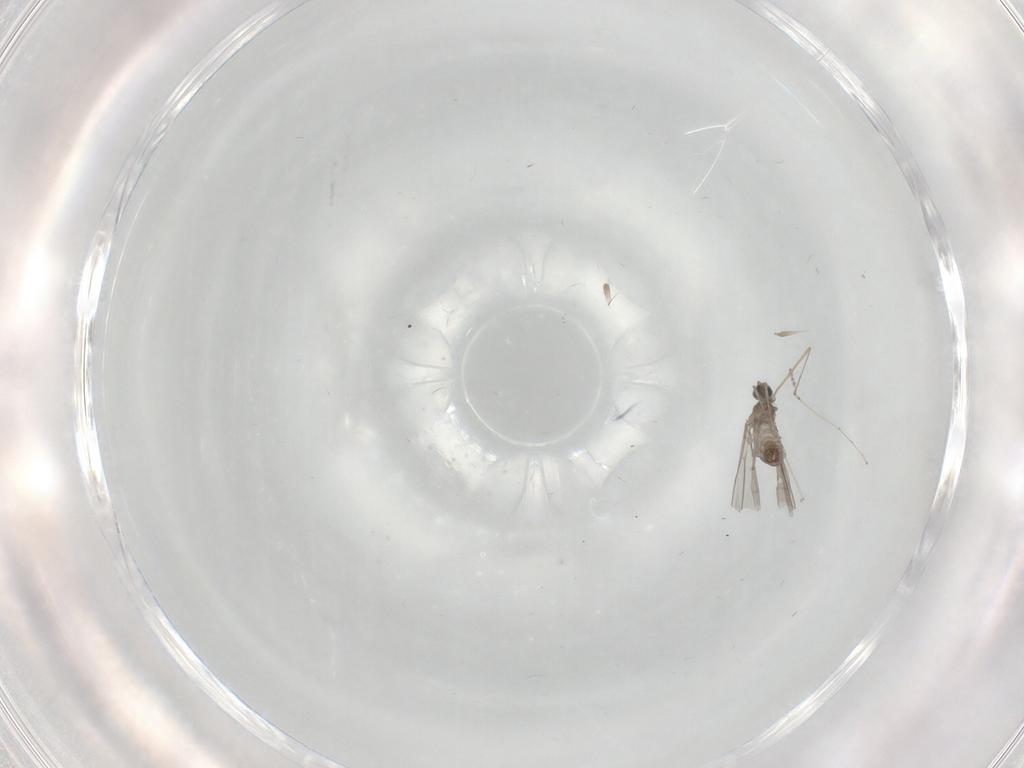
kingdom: Animalia
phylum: Arthropoda
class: Insecta
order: Diptera
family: Cecidomyiidae
